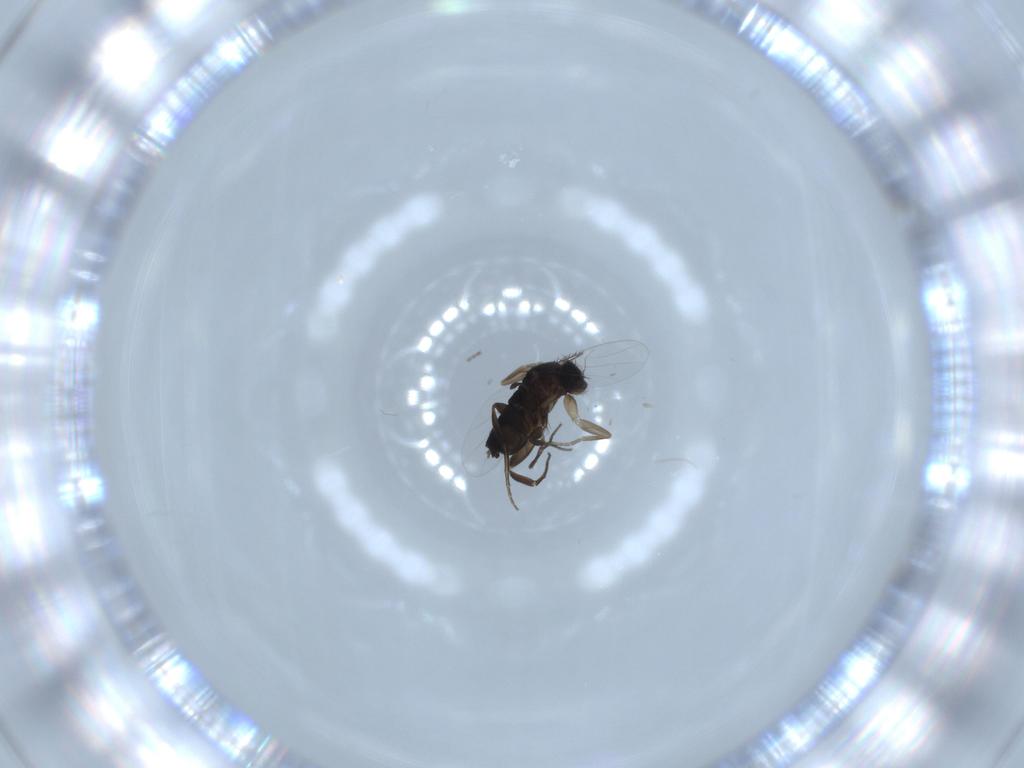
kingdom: Animalia
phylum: Arthropoda
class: Insecta
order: Diptera
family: Phoridae
